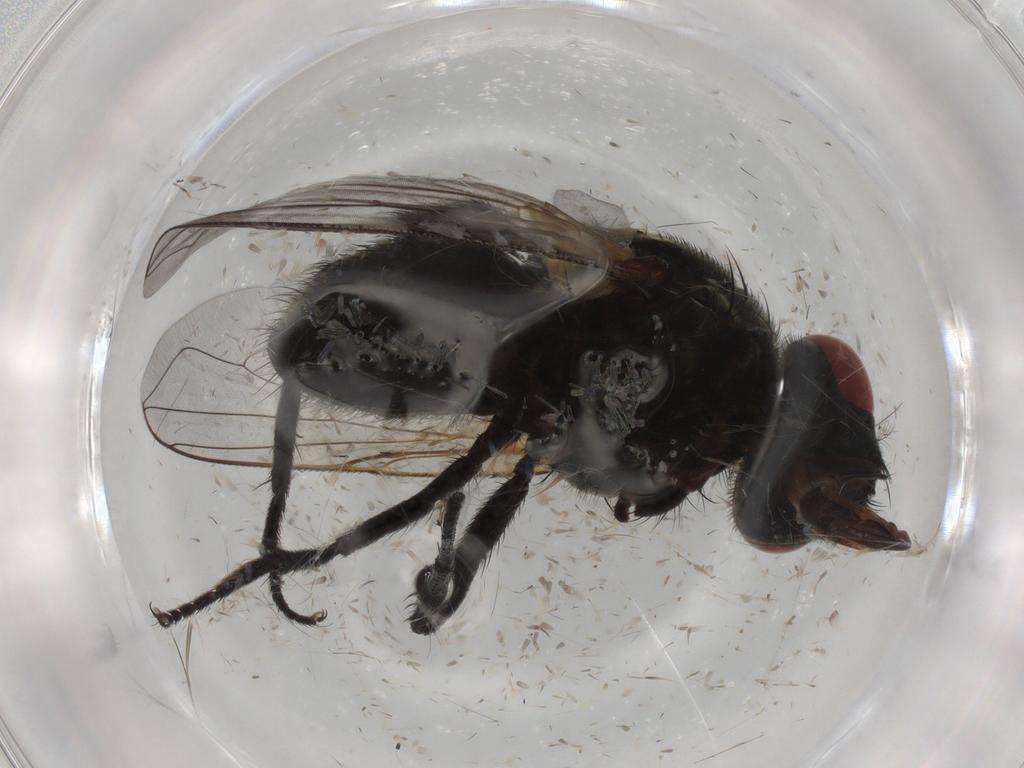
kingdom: Animalia
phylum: Arthropoda
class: Insecta
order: Diptera
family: Muscidae
